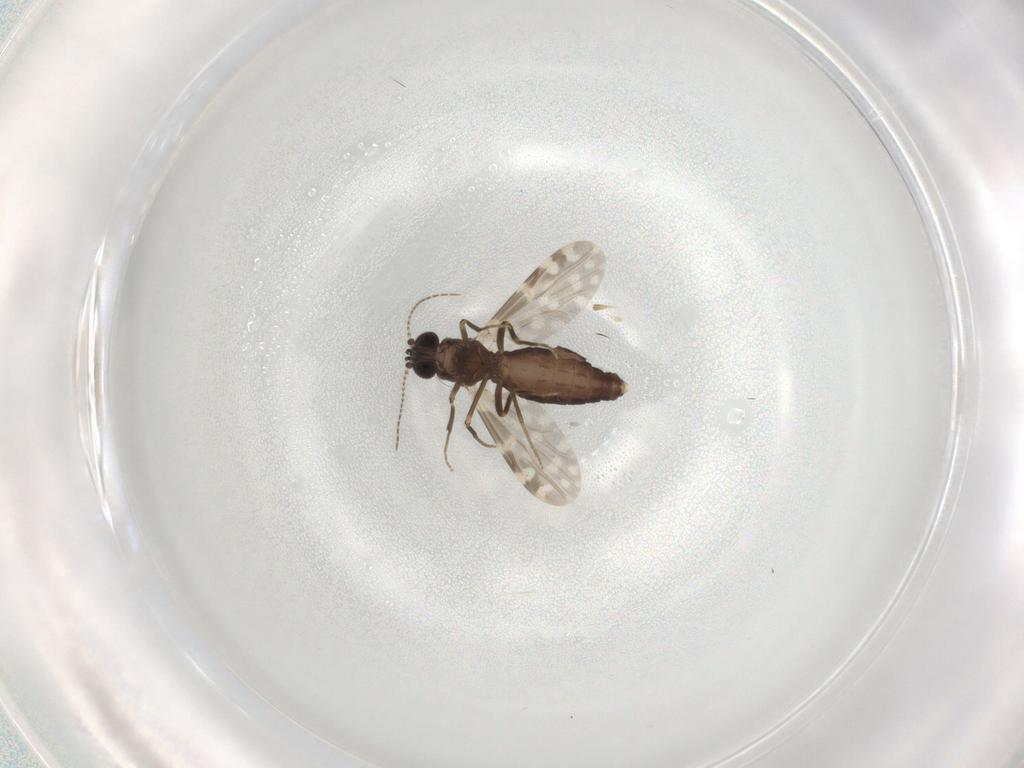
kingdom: Animalia
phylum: Arthropoda
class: Insecta
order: Diptera
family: Ceratopogonidae
